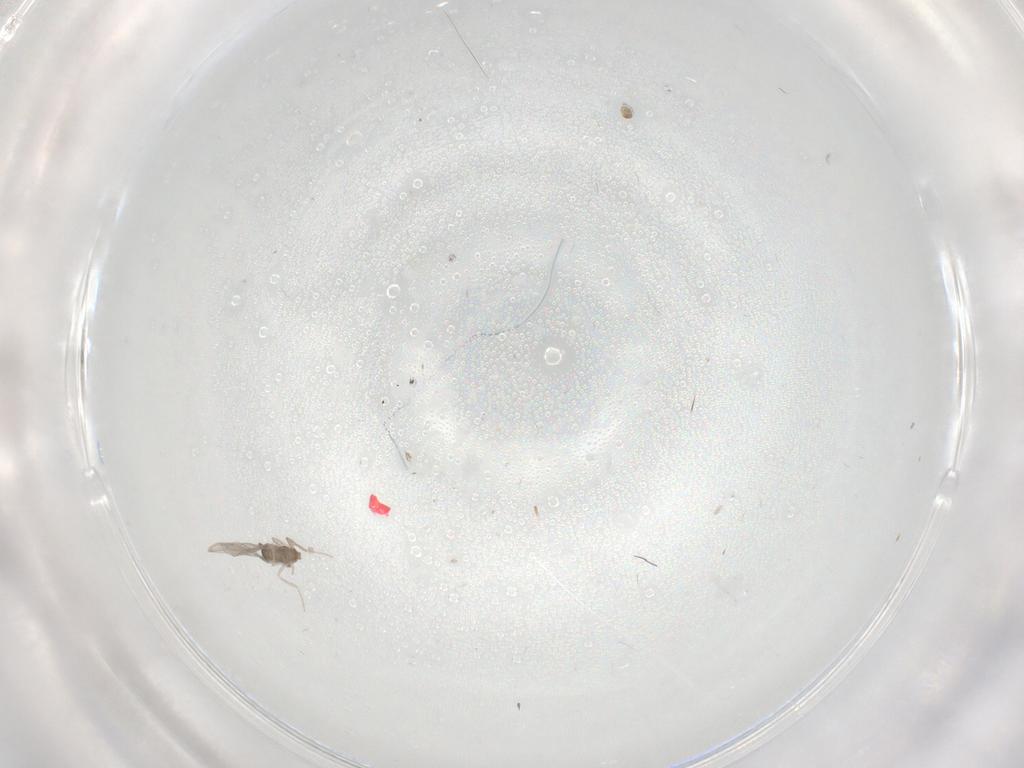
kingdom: Animalia
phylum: Arthropoda
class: Insecta
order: Diptera
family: Cecidomyiidae
